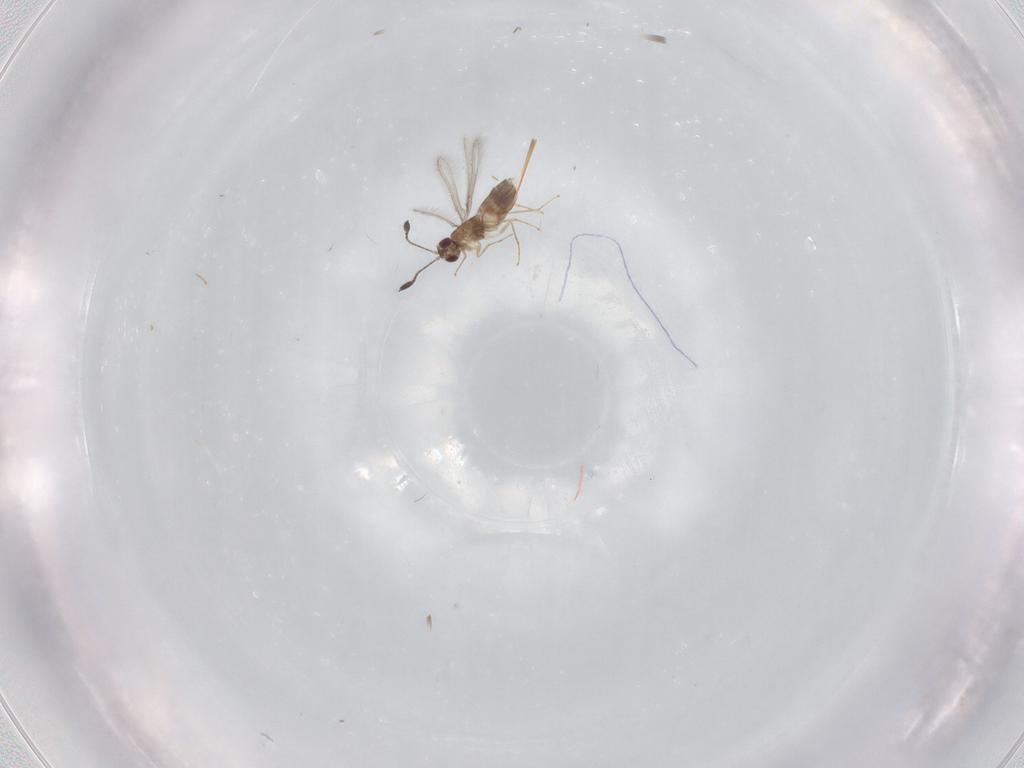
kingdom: Animalia
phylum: Arthropoda
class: Insecta
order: Hymenoptera
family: Mymaridae
